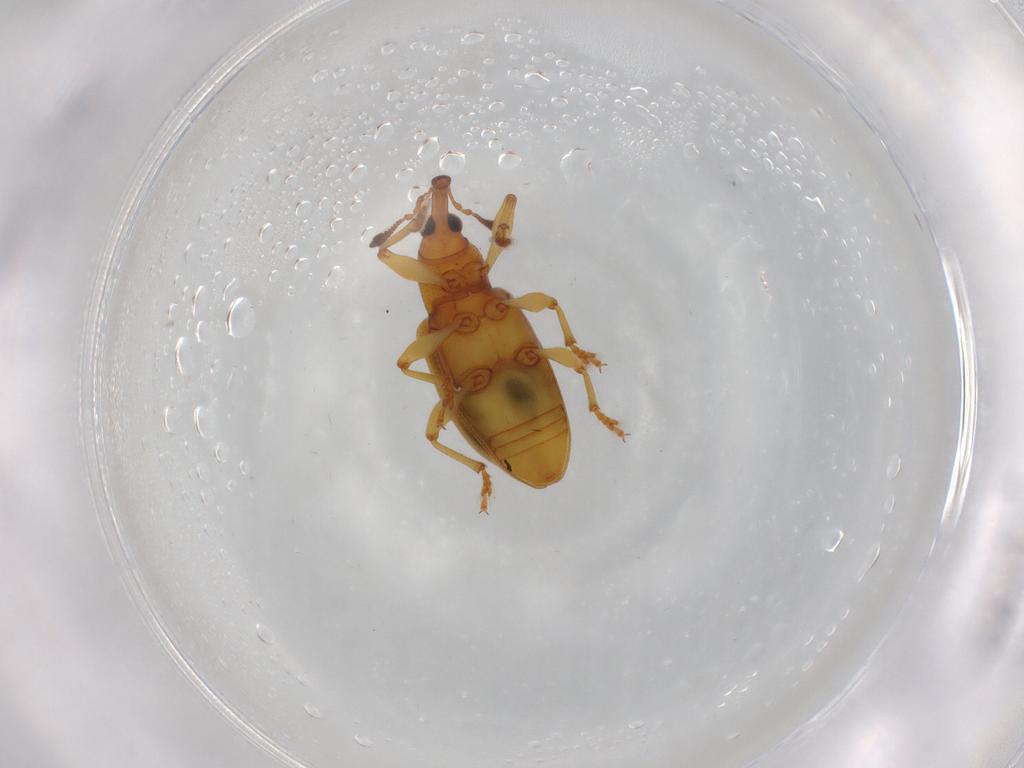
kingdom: Animalia
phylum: Arthropoda
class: Insecta
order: Coleoptera
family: Curculionidae
